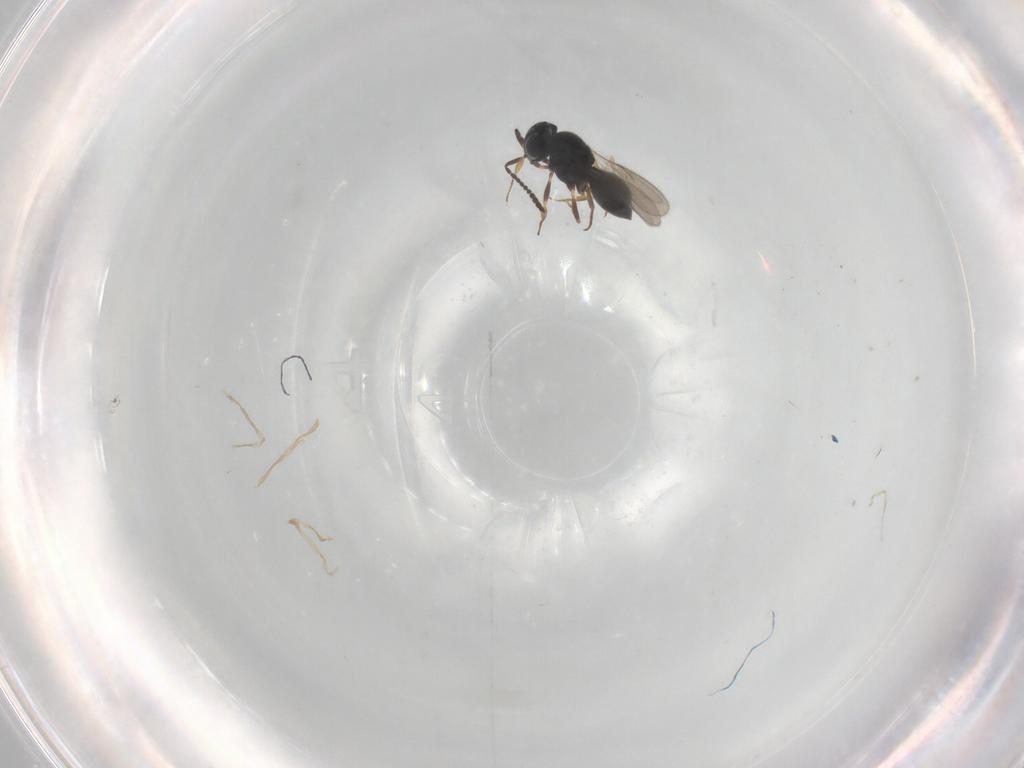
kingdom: Animalia
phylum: Arthropoda
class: Insecta
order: Hymenoptera
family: Scelionidae
